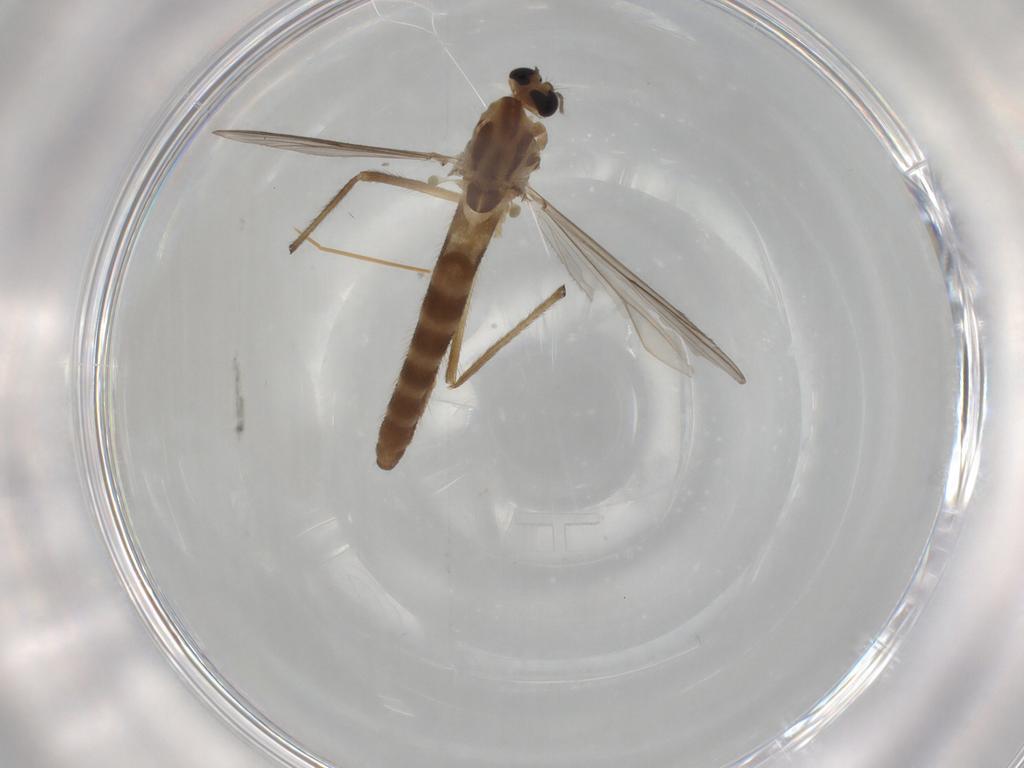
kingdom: Animalia
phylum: Arthropoda
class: Insecta
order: Diptera
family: Chironomidae
